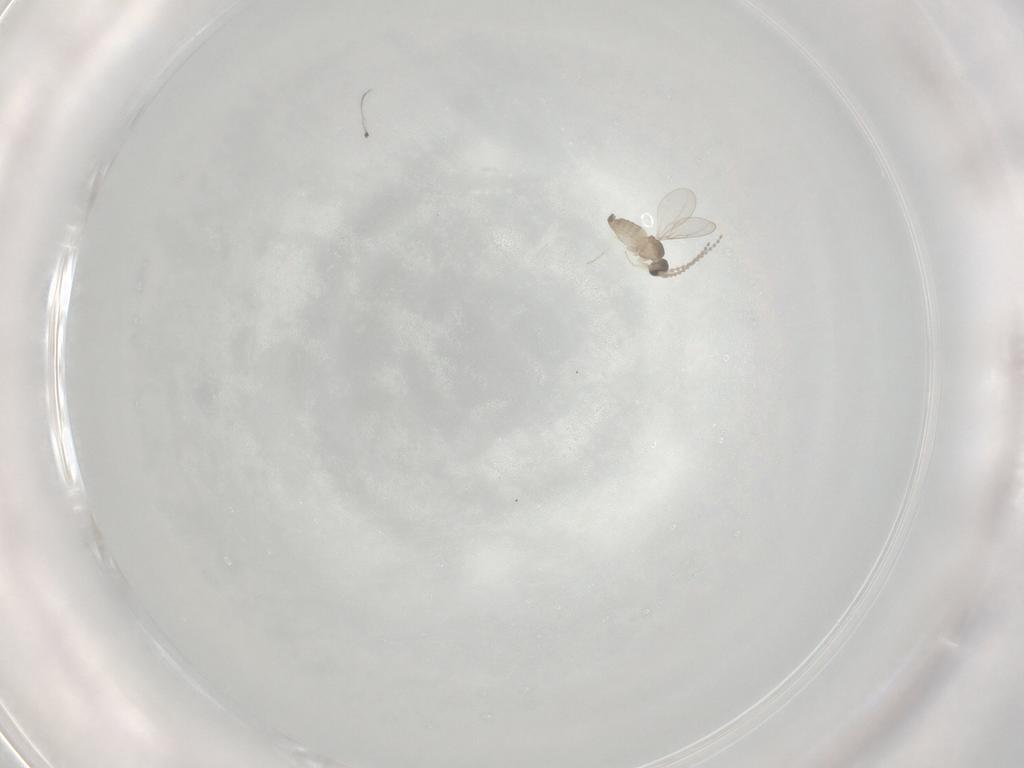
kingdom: Animalia
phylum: Arthropoda
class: Insecta
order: Diptera
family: Cecidomyiidae
